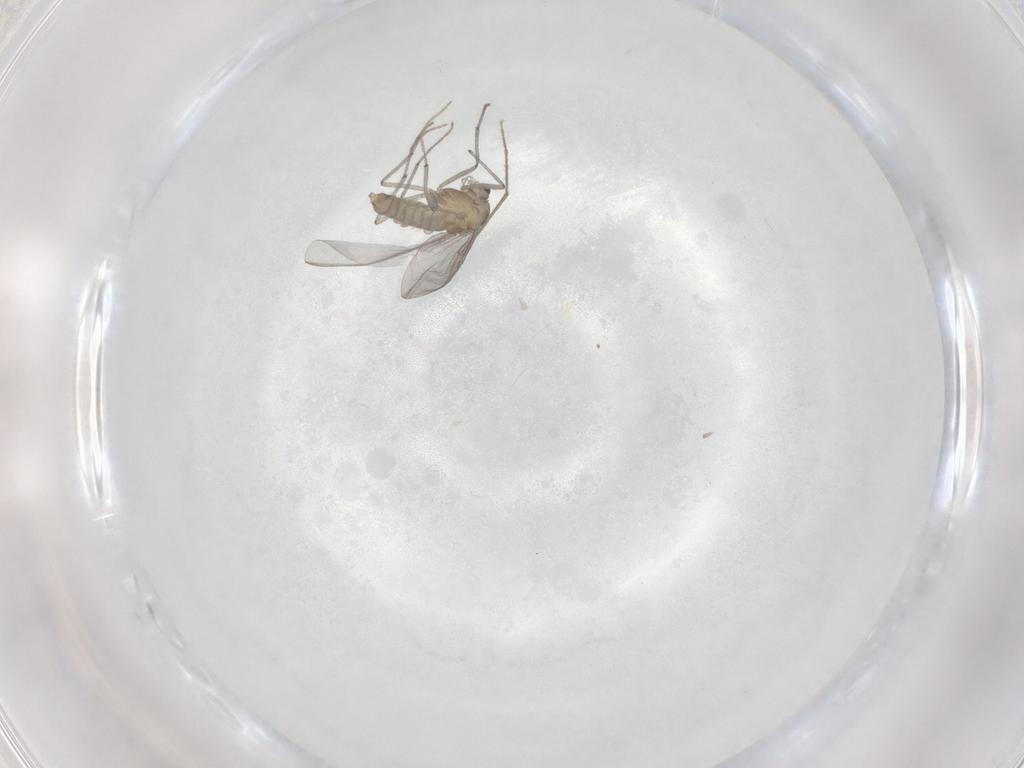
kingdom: Animalia
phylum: Arthropoda
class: Insecta
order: Diptera
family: Chironomidae
